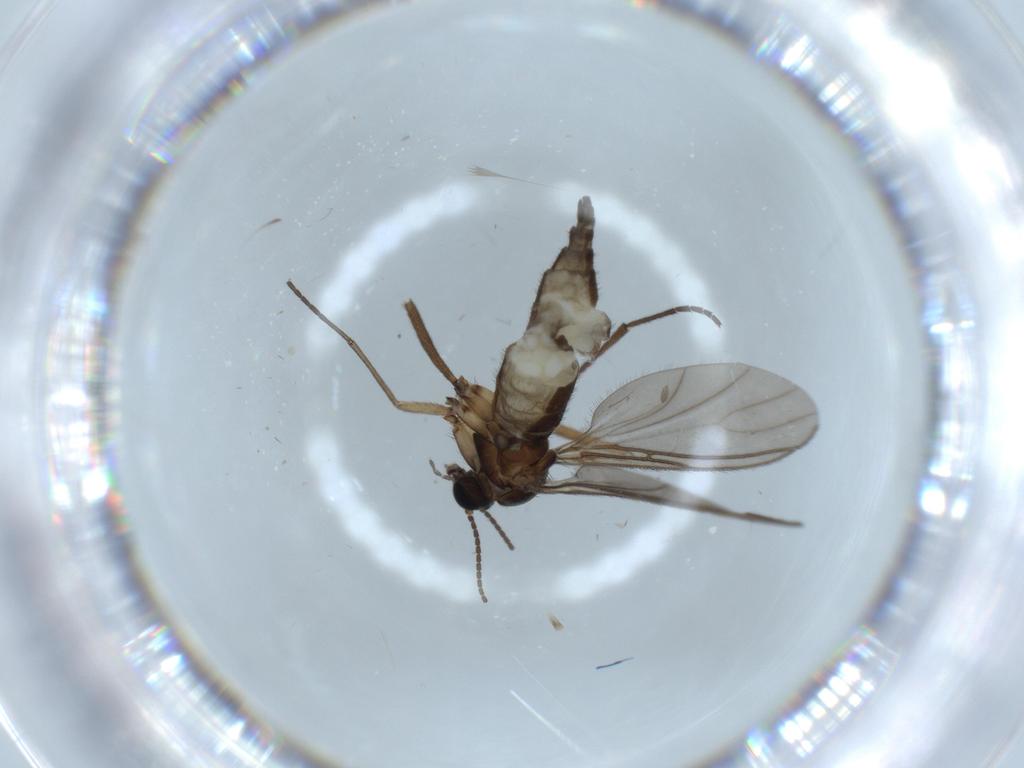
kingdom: Animalia
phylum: Arthropoda
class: Insecta
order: Diptera
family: Sciaridae
